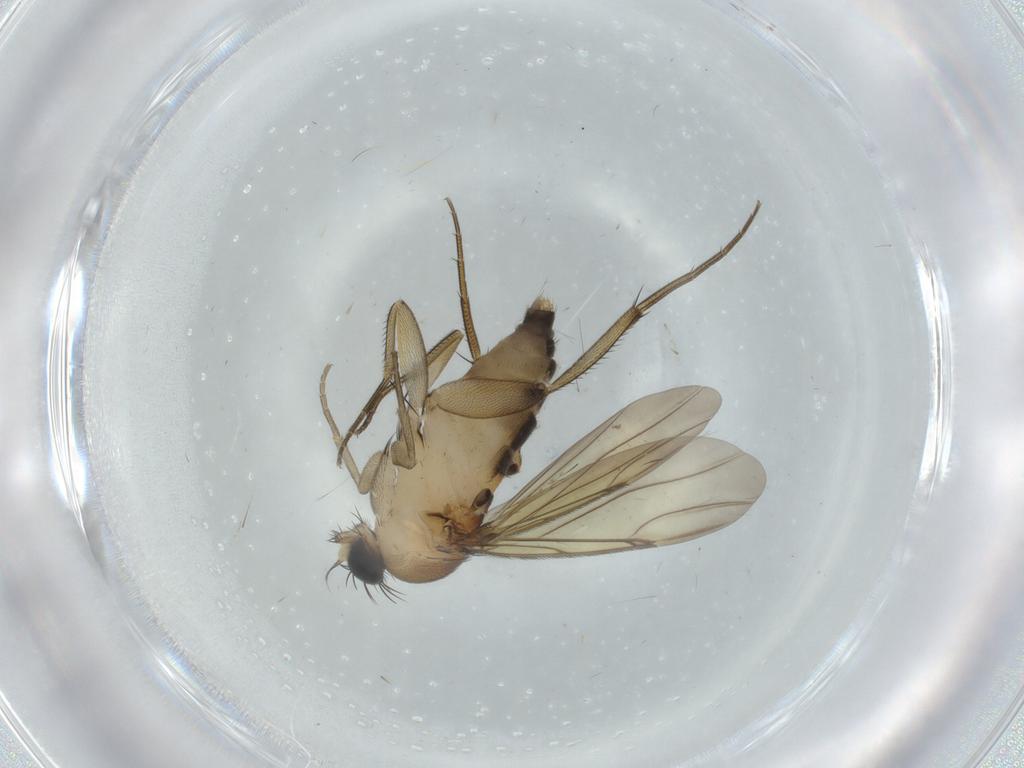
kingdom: Animalia
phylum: Arthropoda
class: Insecta
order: Diptera
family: Phoridae
